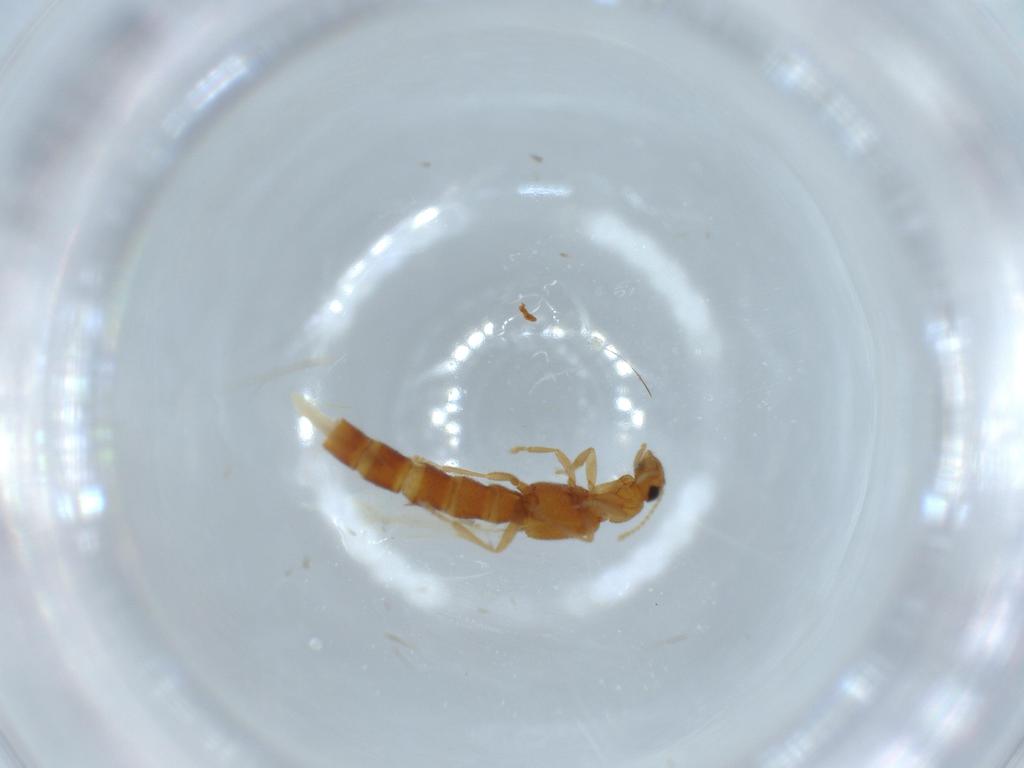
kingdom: Animalia
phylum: Arthropoda
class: Insecta
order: Coleoptera
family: Staphylinidae
